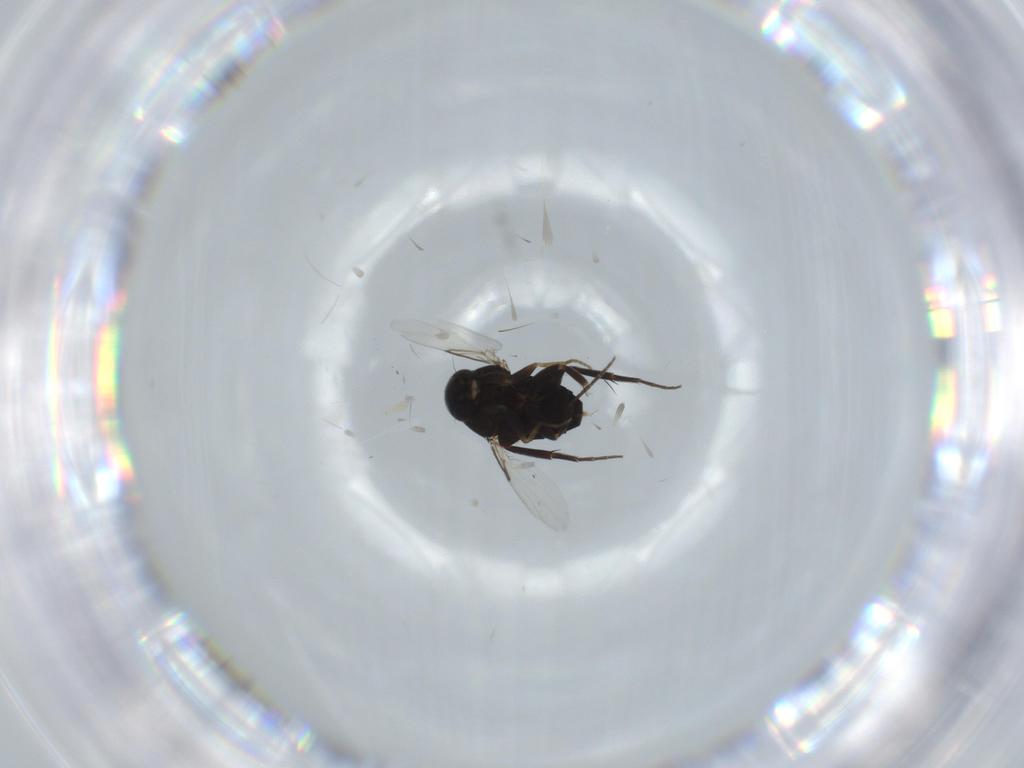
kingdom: Animalia
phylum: Arthropoda
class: Insecta
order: Diptera
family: Phoridae
